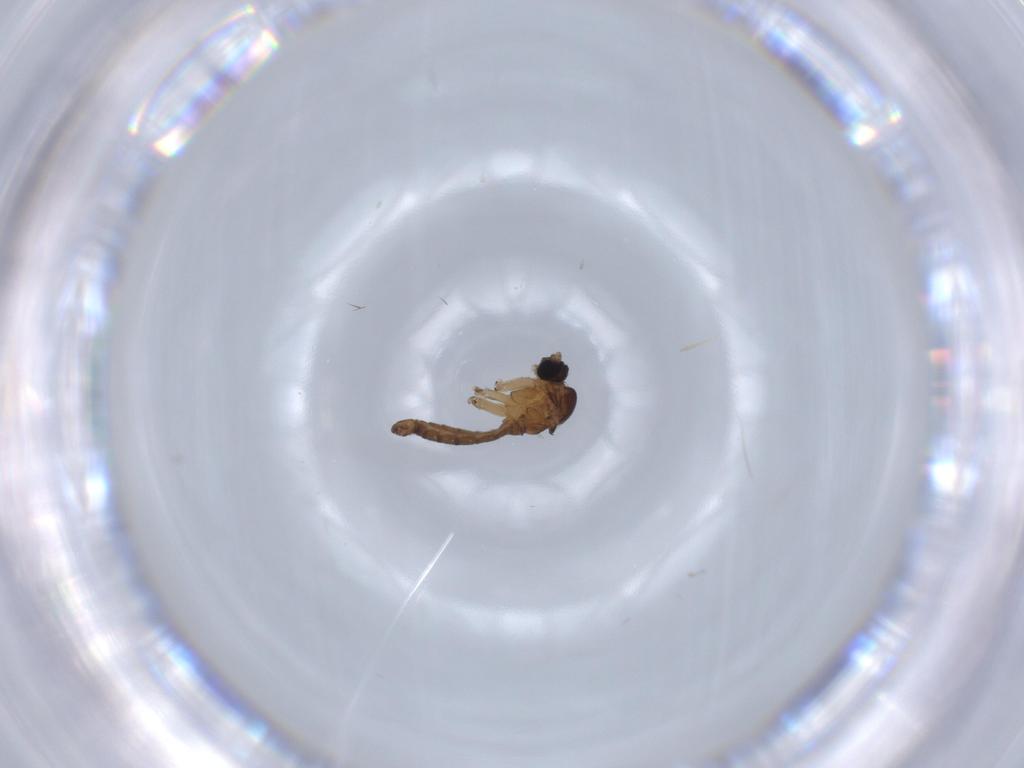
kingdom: Animalia
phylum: Arthropoda
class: Insecta
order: Diptera
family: Sciaridae
